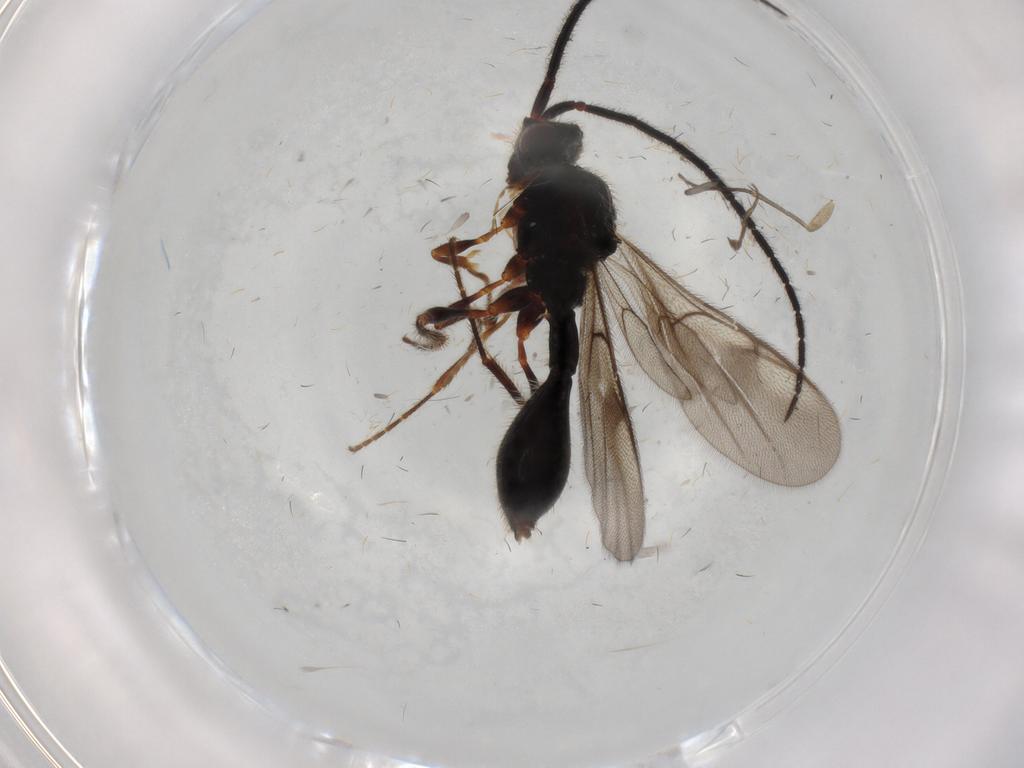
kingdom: Animalia
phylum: Arthropoda
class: Insecta
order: Hymenoptera
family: Diapriidae
